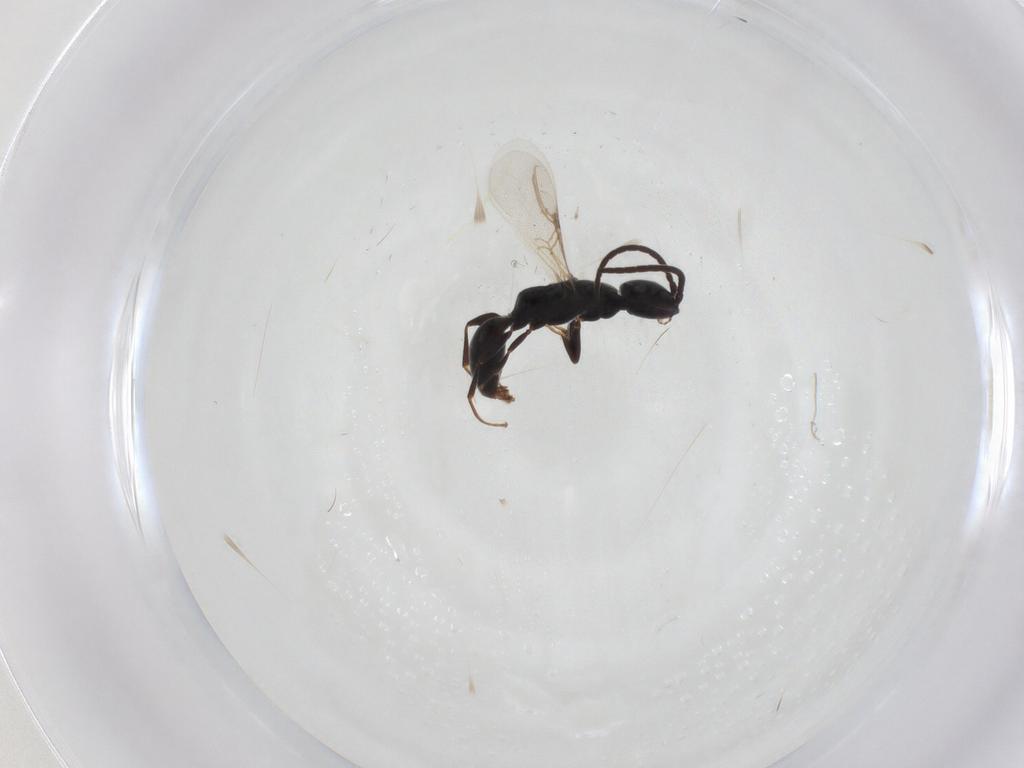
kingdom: Animalia
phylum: Arthropoda
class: Insecta
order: Hymenoptera
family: Bethylidae
